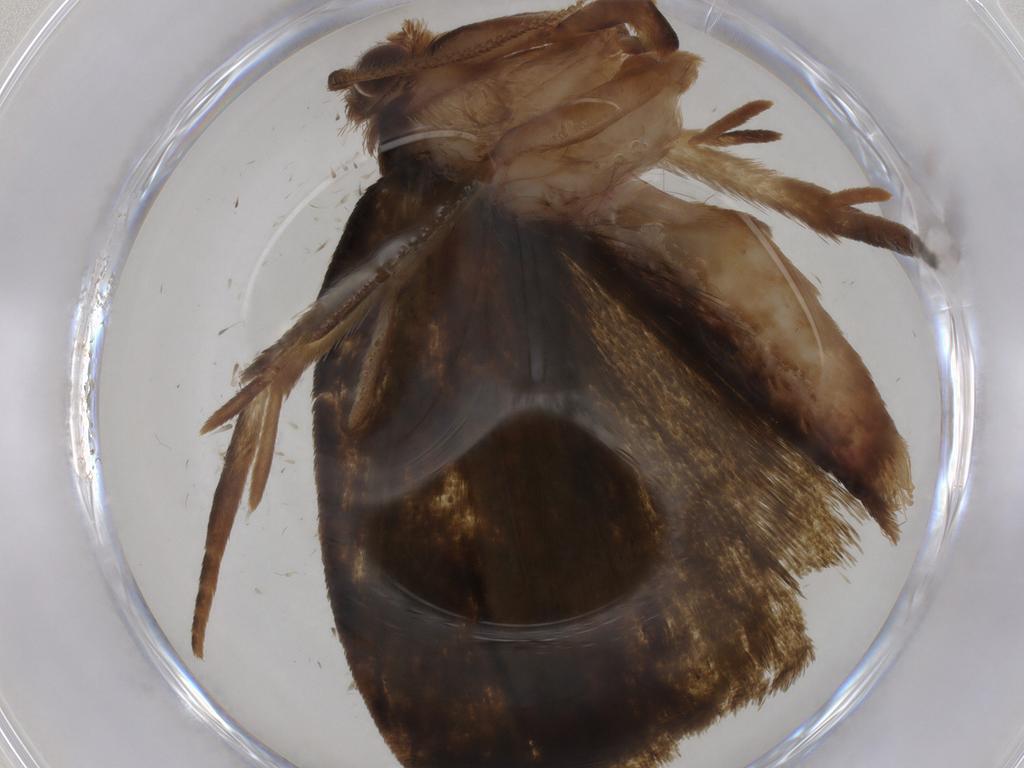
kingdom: Animalia
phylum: Arthropoda
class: Insecta
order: Lepidoptera
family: Geometridae
